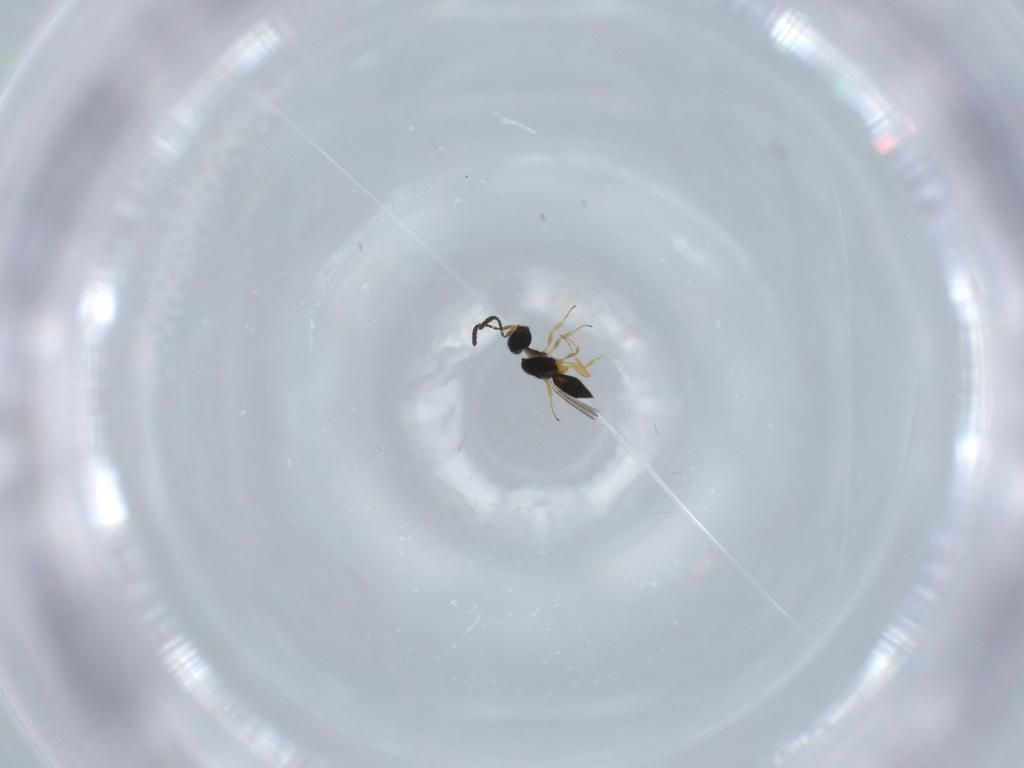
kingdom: Animalia
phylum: Arthropoda
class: Insecta
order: Hymenoptera
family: Scelionidae
